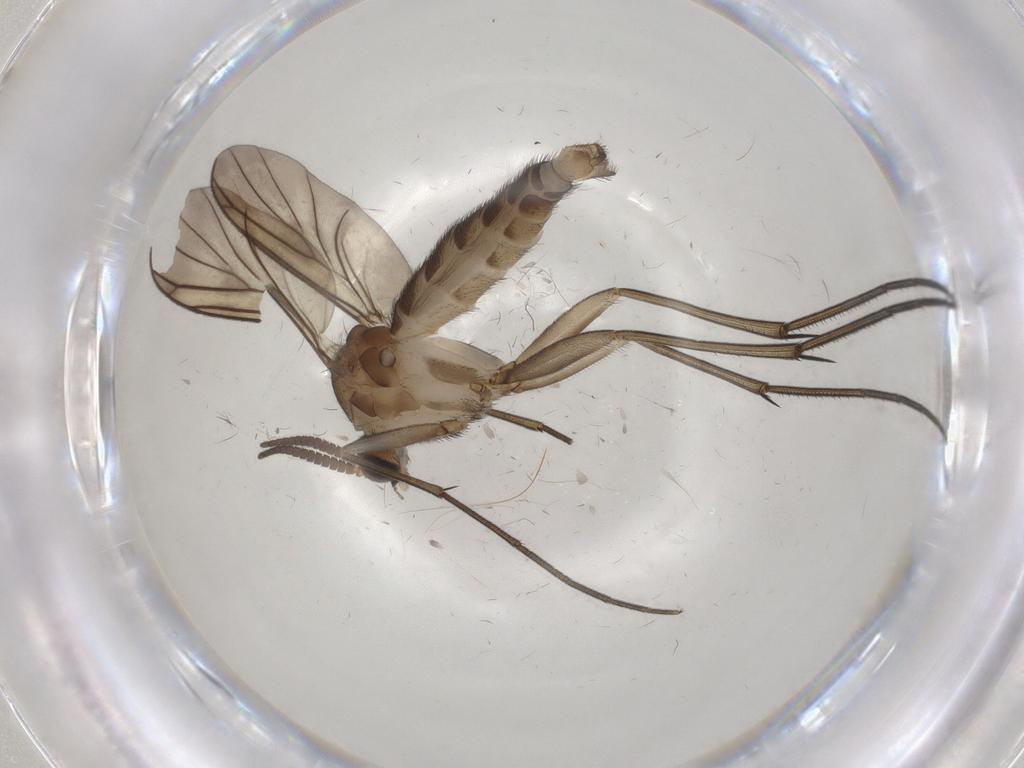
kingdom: Animalia
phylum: Arthropoda
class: Insecta
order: Diptera
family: Mycetophilidae
